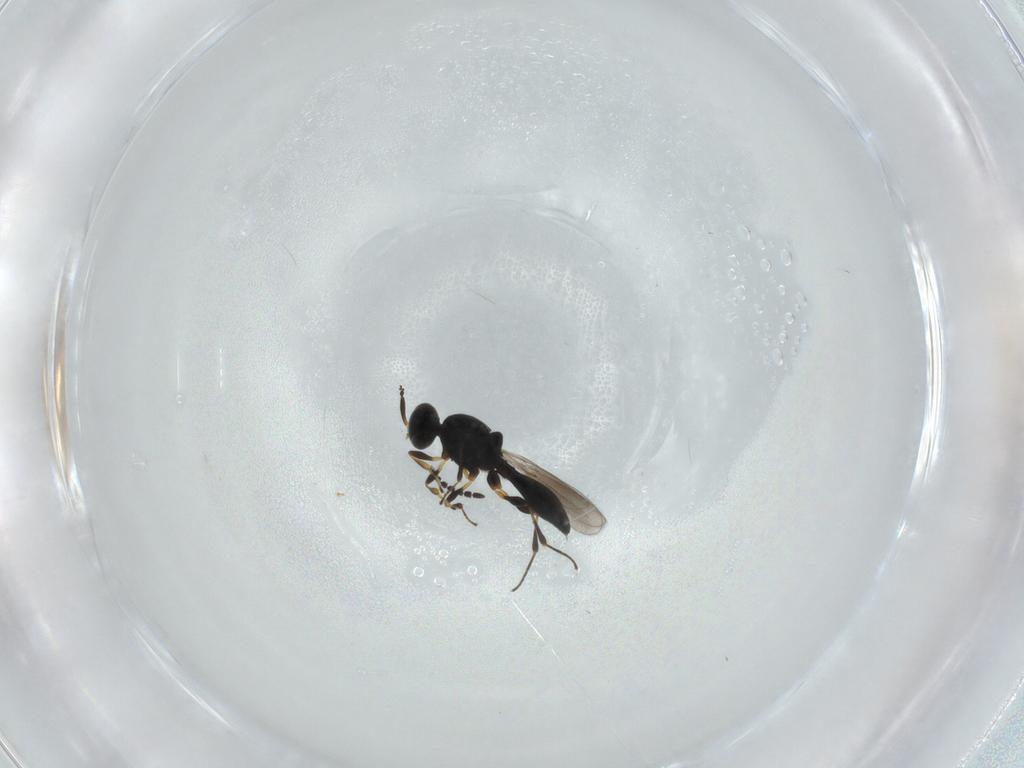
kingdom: Animalia
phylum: Arthropoda
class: Insecta
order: Hymenoptera
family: Platygastridae
